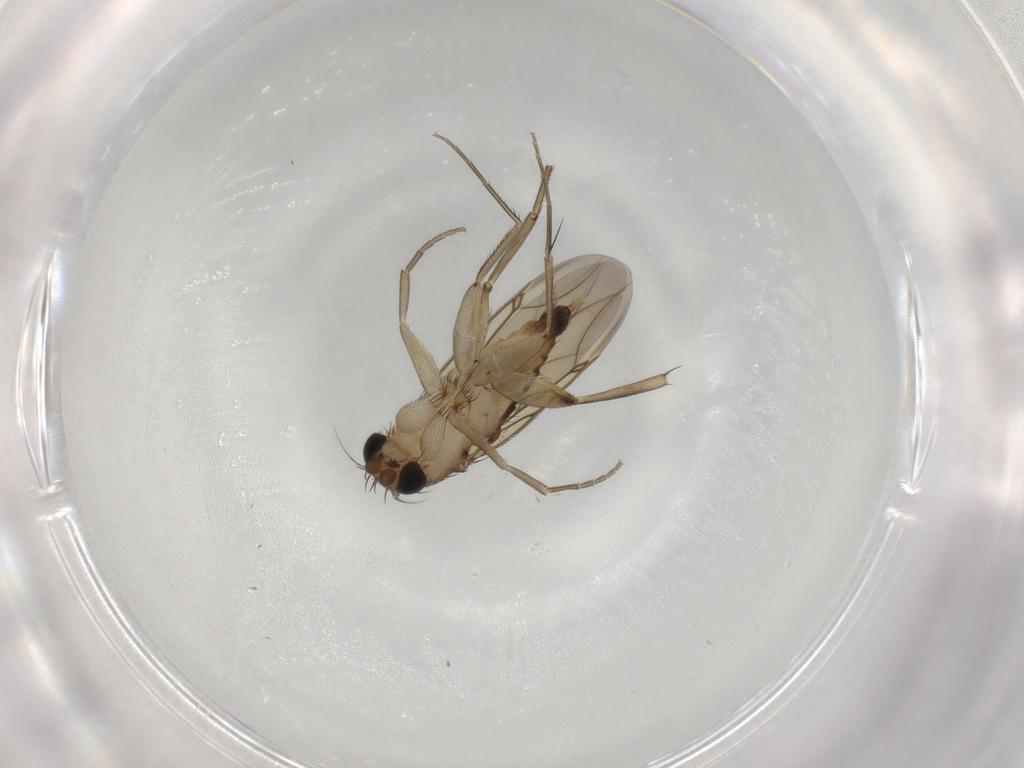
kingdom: Animalia
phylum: Arthropoda
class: Insecta
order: Diptera
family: Phoridae
